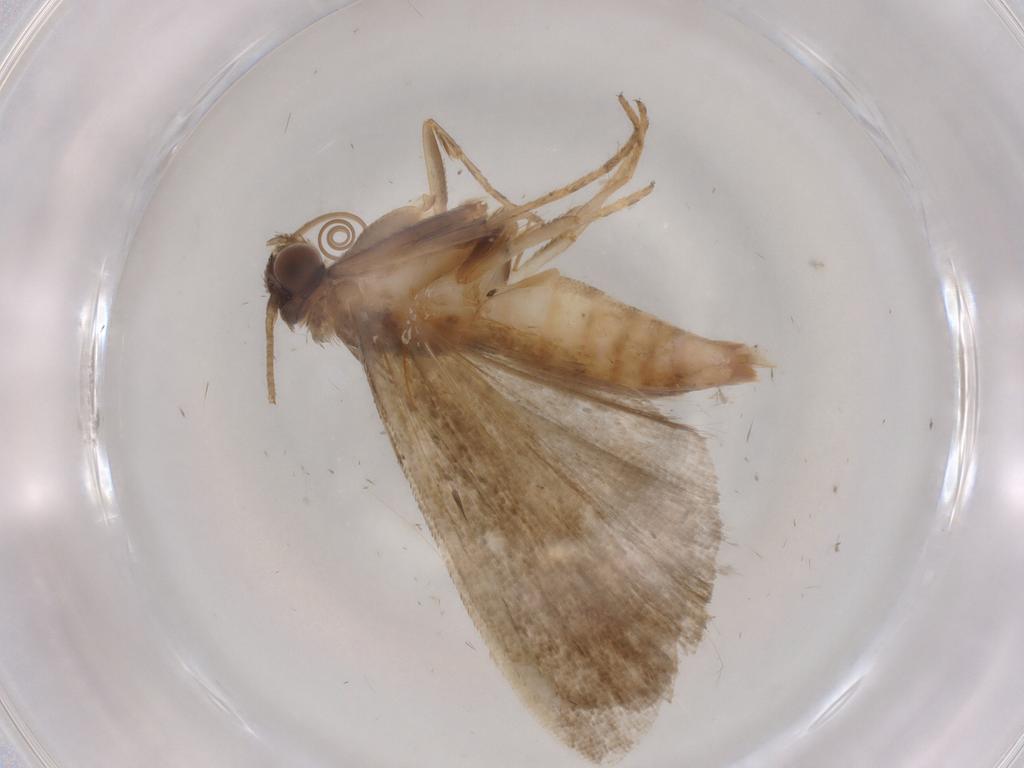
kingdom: Animalia
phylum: Arthropoda
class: Insecta
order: Lepidoptera
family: Noctuidae
